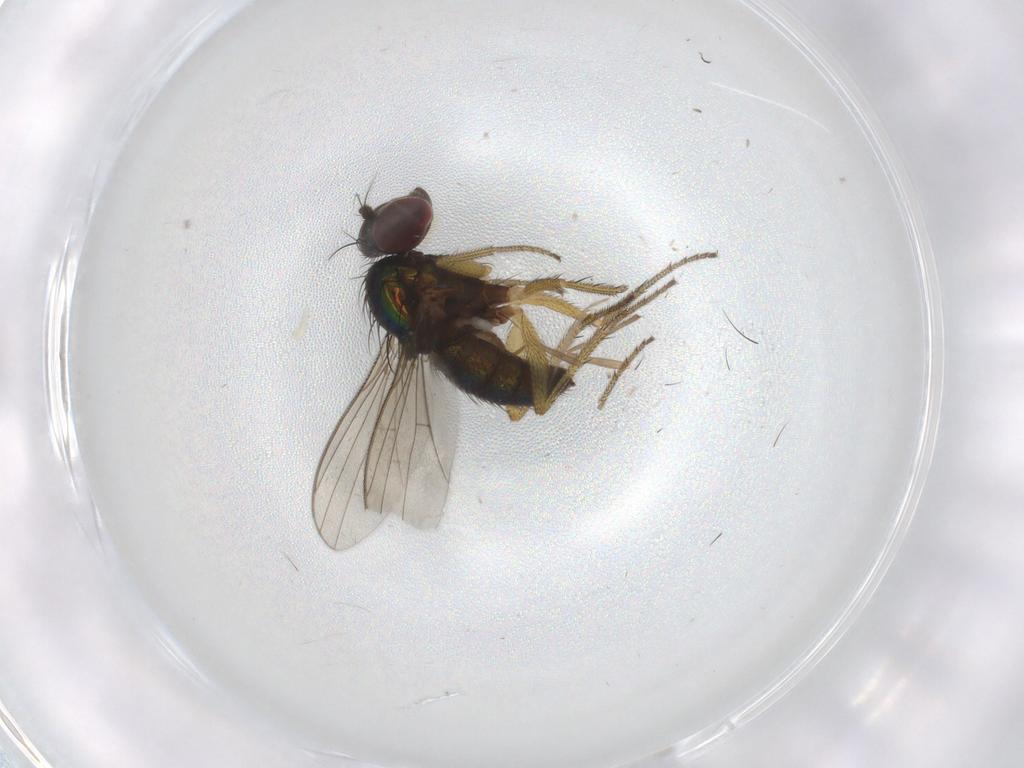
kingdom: Animalia
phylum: Arthropoda
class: Insecta
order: Diptera
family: Chironomidae
